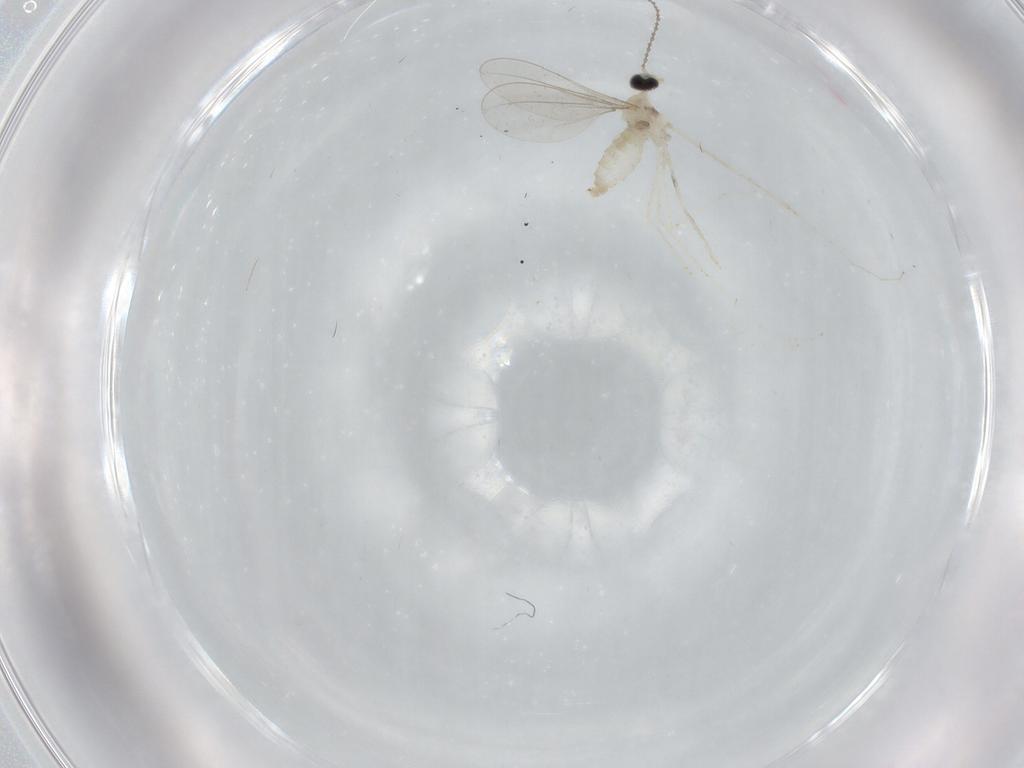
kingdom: Animalia
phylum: Arthropoda
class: Insecta
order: Diptera
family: Cecidomyiidae
